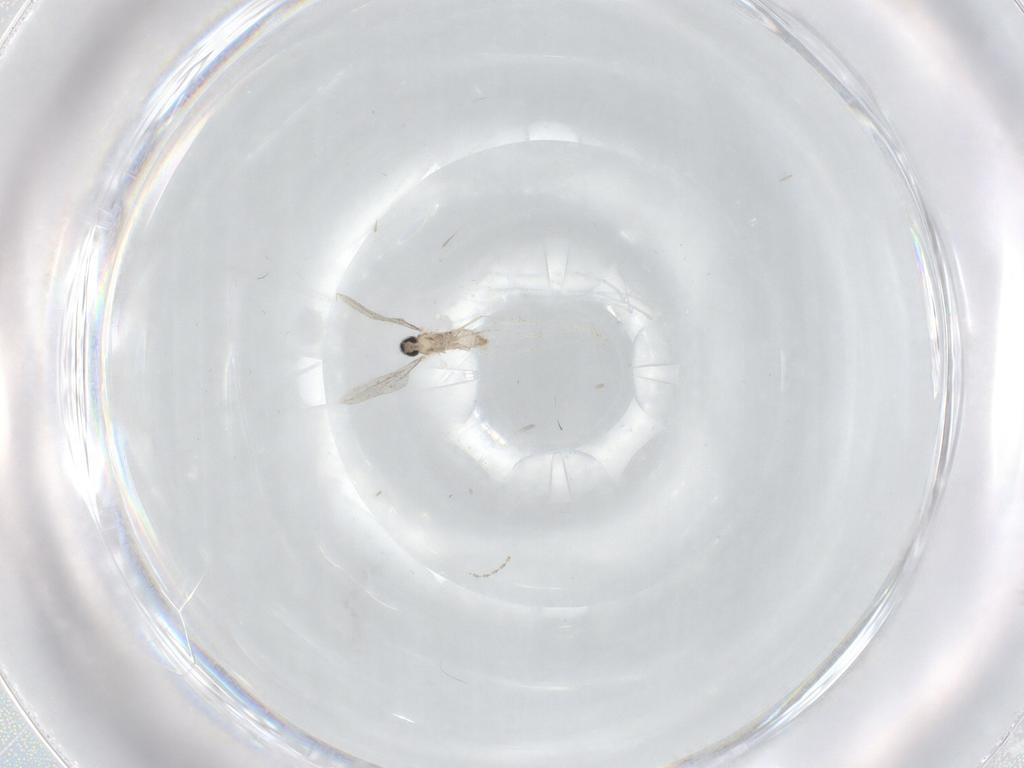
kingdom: Animalia
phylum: Arthropoda
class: Insecta
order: Diptera
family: Cecidomyiidae
